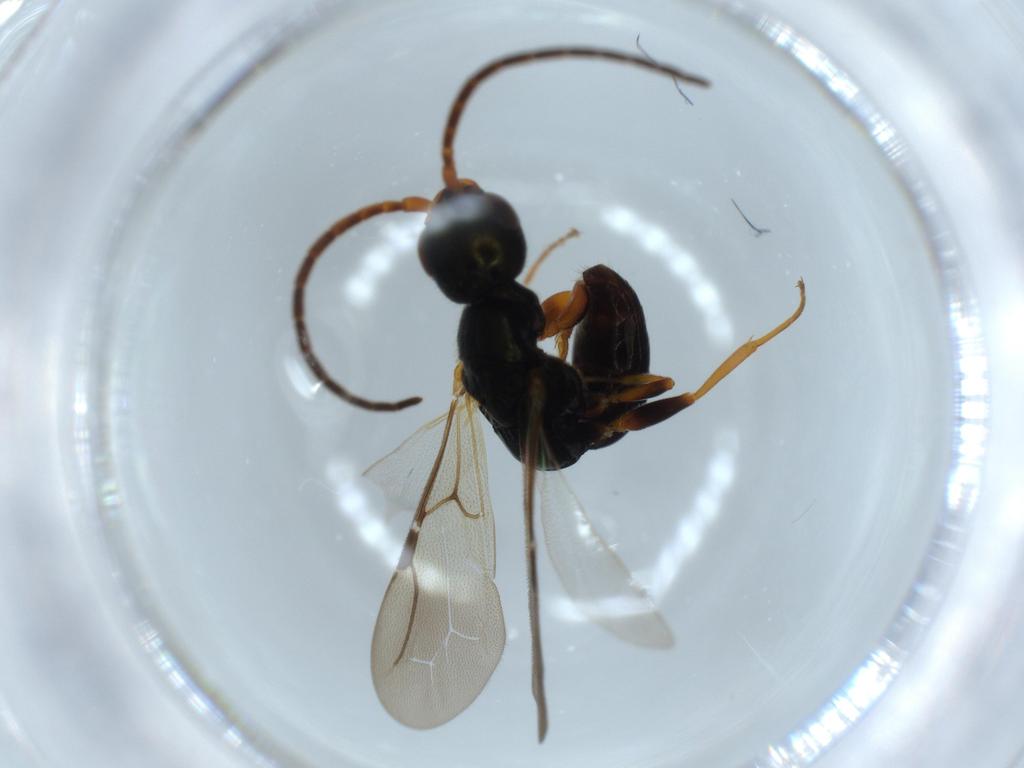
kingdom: Animalia
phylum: Arthropoda
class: Insecta
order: Hymenoptera
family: Bethylidae
